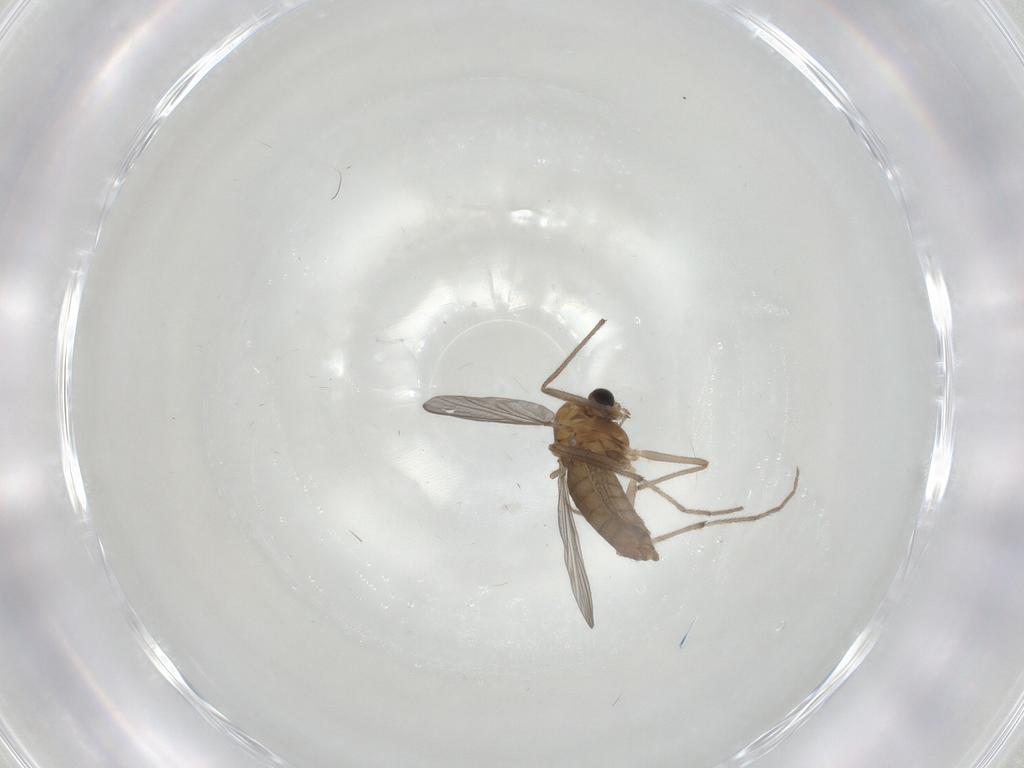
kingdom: Animalia
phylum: Arthropoda
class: Insecta
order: Diptera
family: Chironomidae
